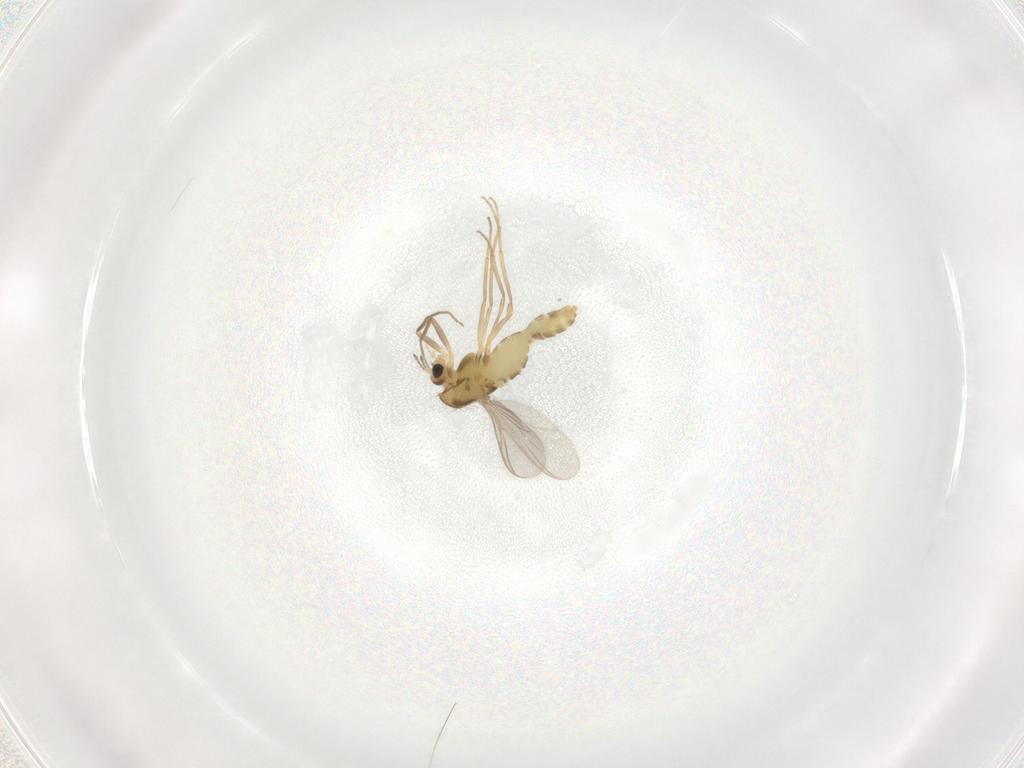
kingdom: Animalia
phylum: Arthropoda
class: Insecta
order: Diptera
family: Chironomidae
